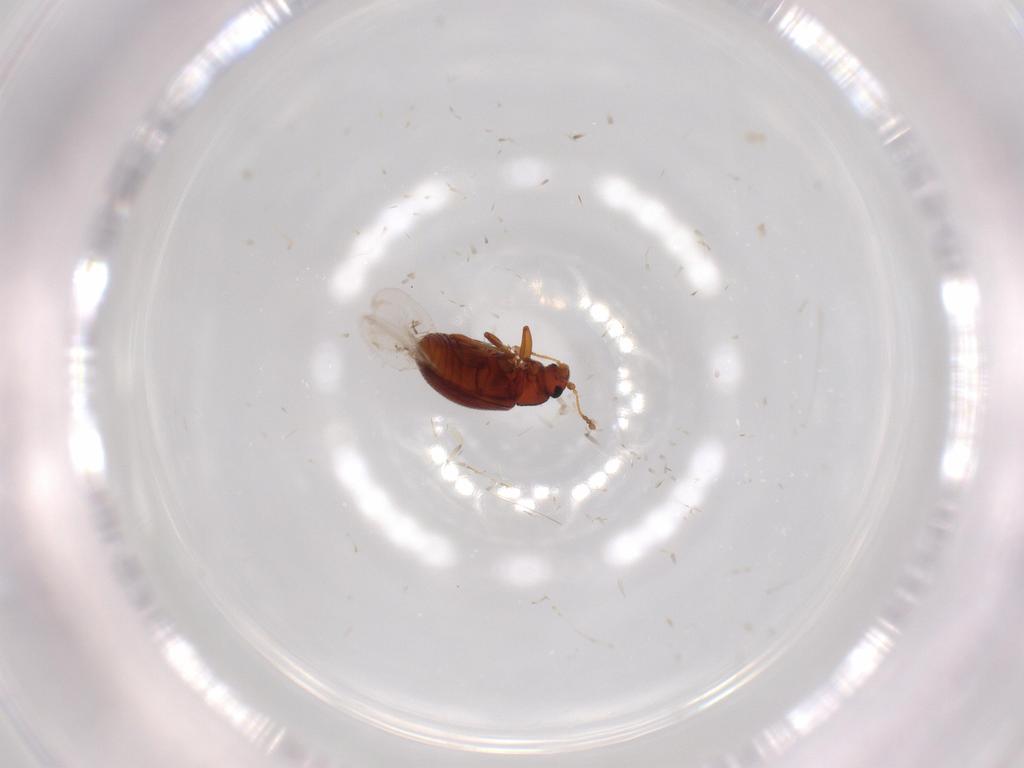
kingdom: Animalia
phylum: Arthropoda
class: Insecta
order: Coleoptera
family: Latridiidae
